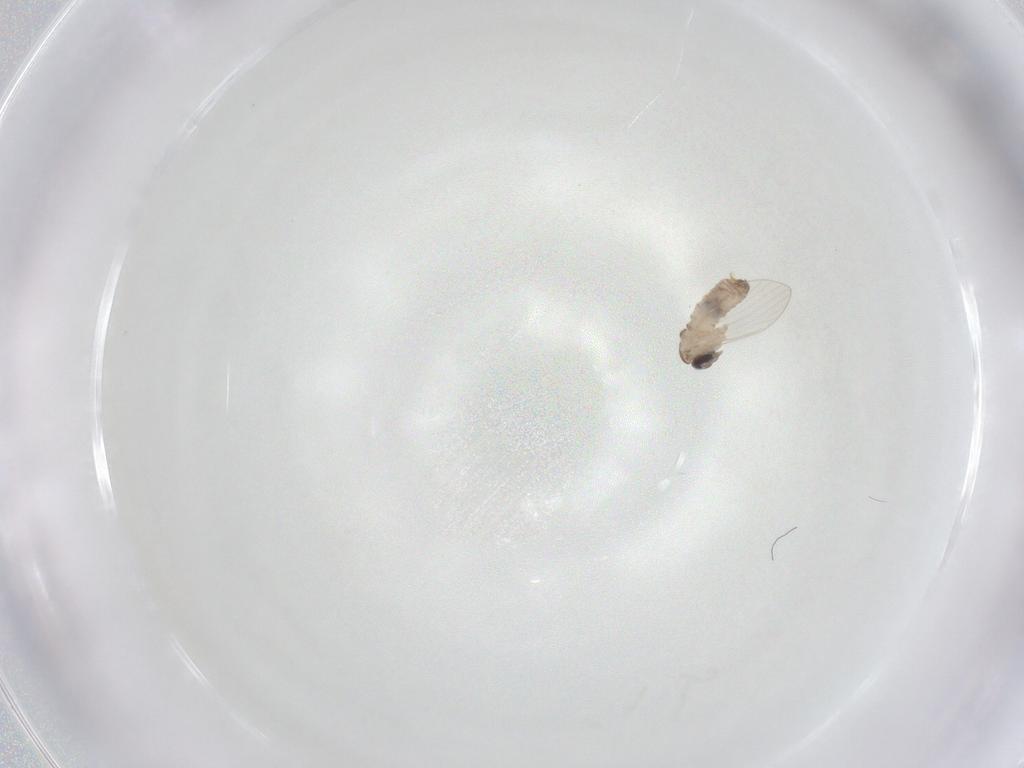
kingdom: Animalia
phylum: Arthropoda
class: Insecta
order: Diptera
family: Psychodidae
